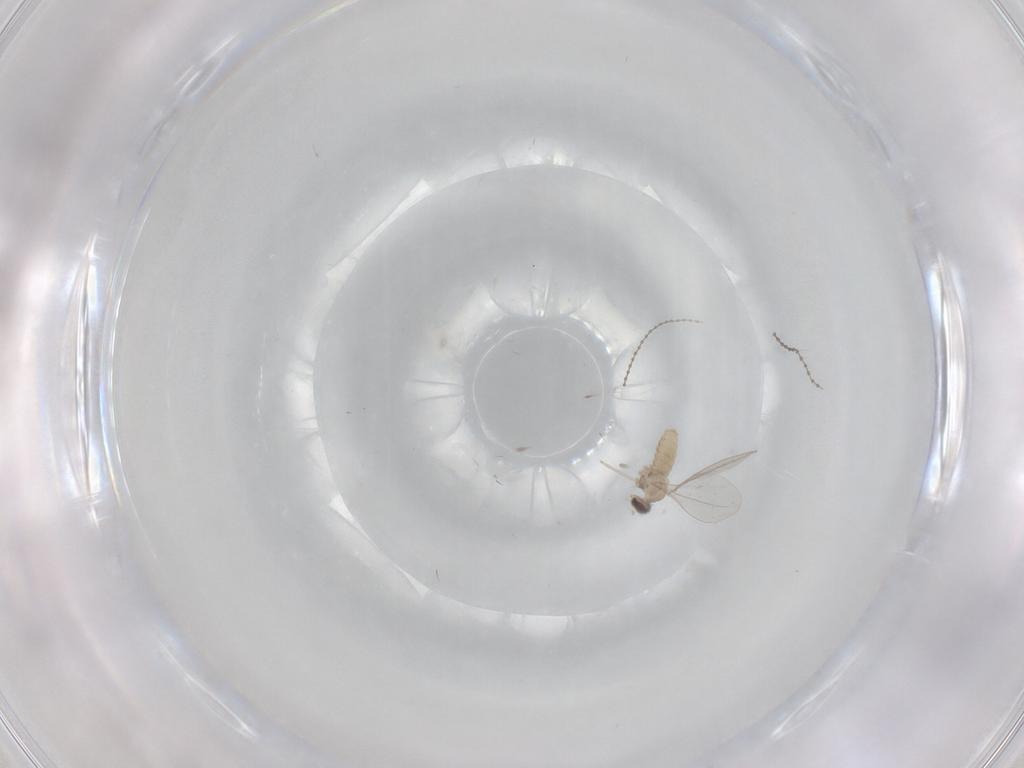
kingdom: Animalia
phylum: Arthropoda
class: Insecta
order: Diptera
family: Cecidomyiidae
